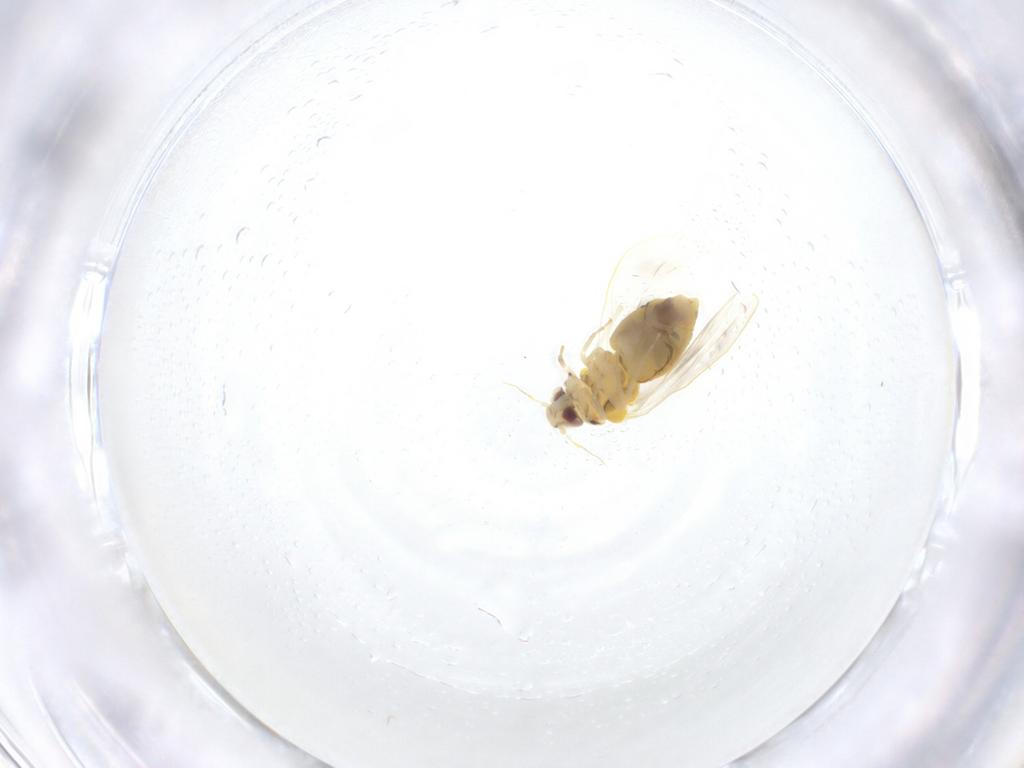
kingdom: Animalia
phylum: Arthropoda
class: Insecta
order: Hemiptera
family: Aleyrodidae
